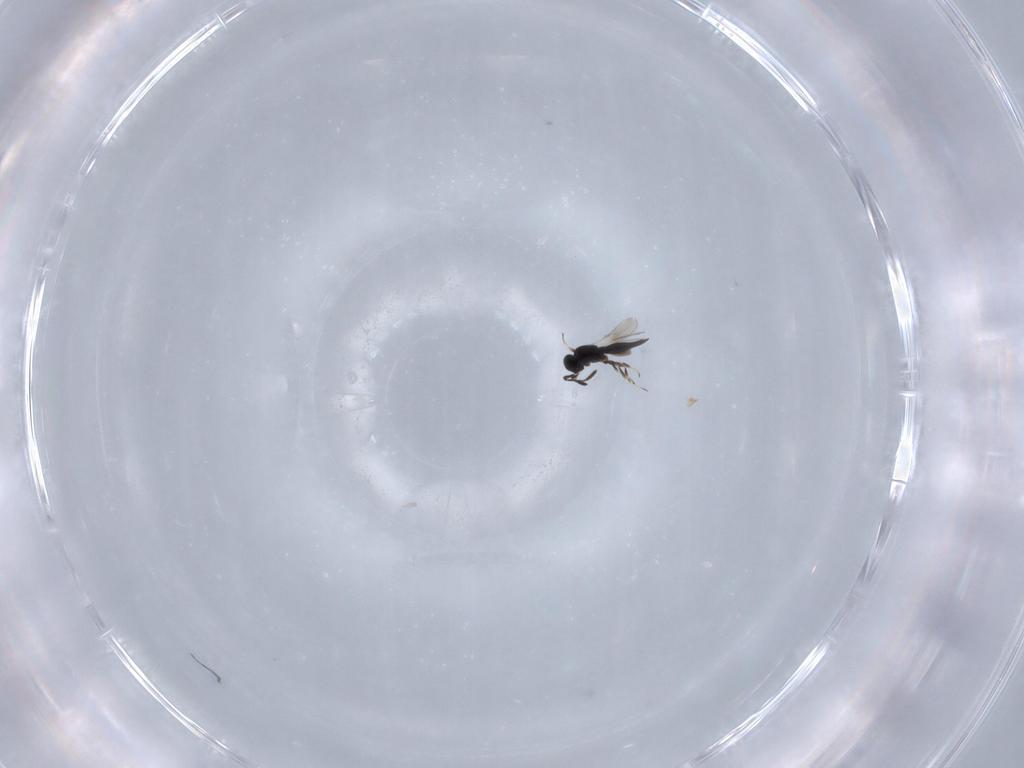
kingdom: Animalia
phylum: Arthropoda
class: Insecta
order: Hymenoptera
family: Scelionidae
